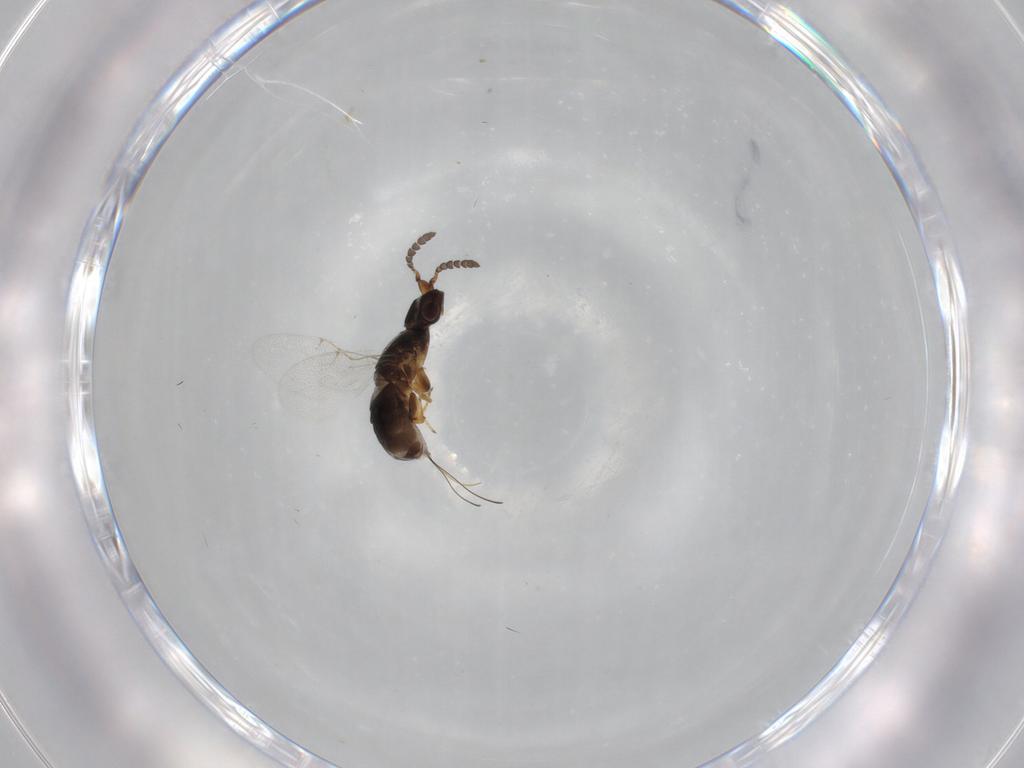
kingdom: Animalia
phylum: Arthropoda
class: Insecta
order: Hymenoptera
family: Agaonidae
